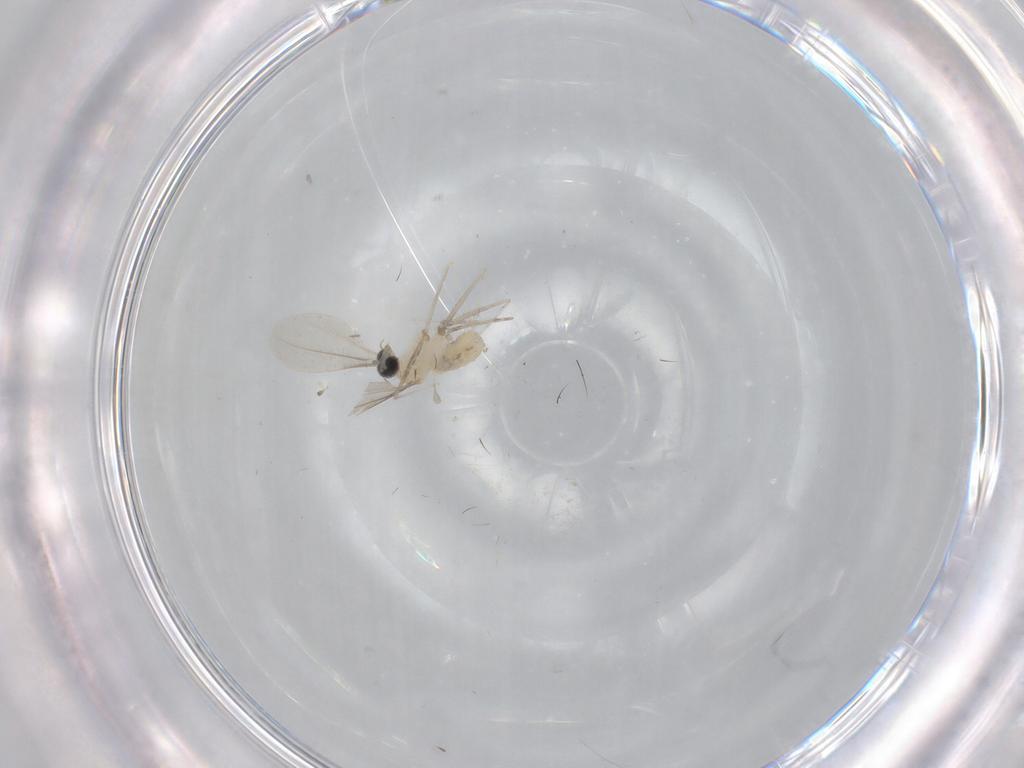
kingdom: Animalia
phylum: Arthropoda
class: Insecta
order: Diptera
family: Cecidomyiidae
